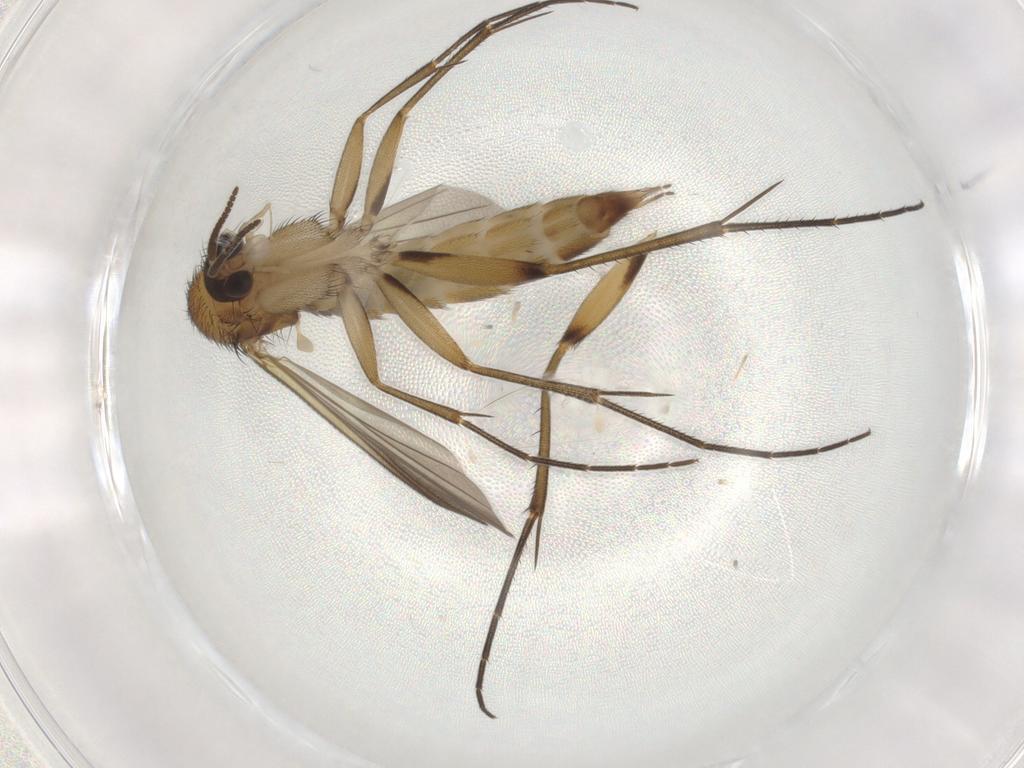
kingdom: Animalia
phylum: Arthropoda
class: Insecta
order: Diptera
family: Mycetophilidae
